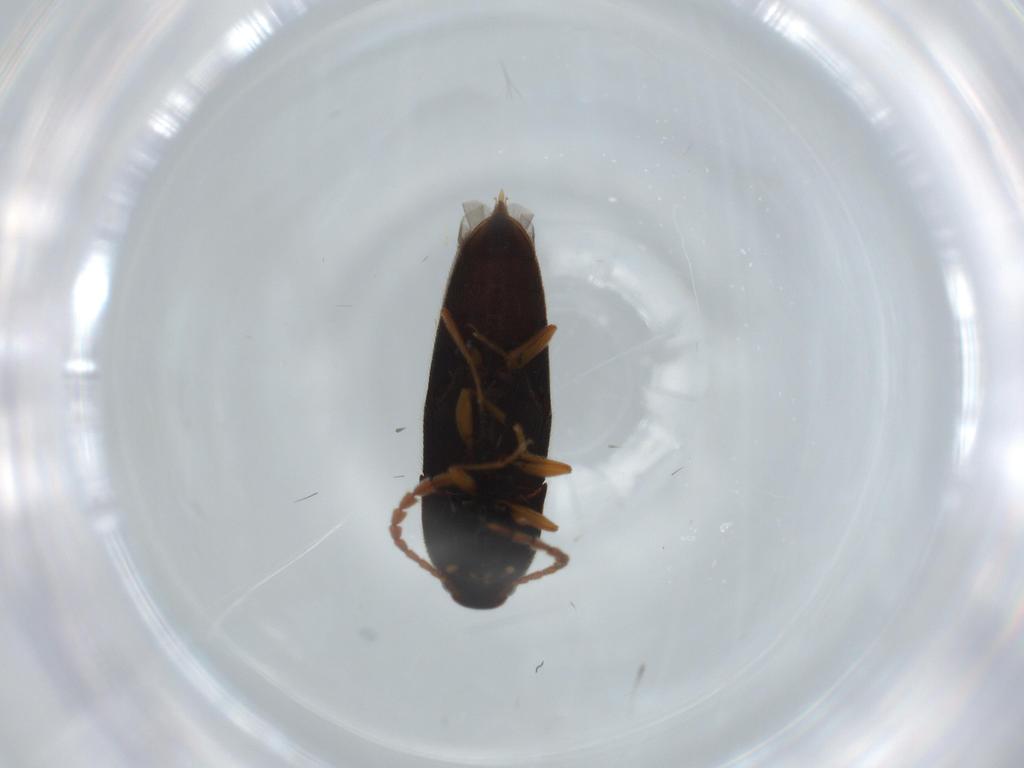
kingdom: Animalia
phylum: Arthropoda
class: Insecta
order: Coleoptera
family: Elateridae
